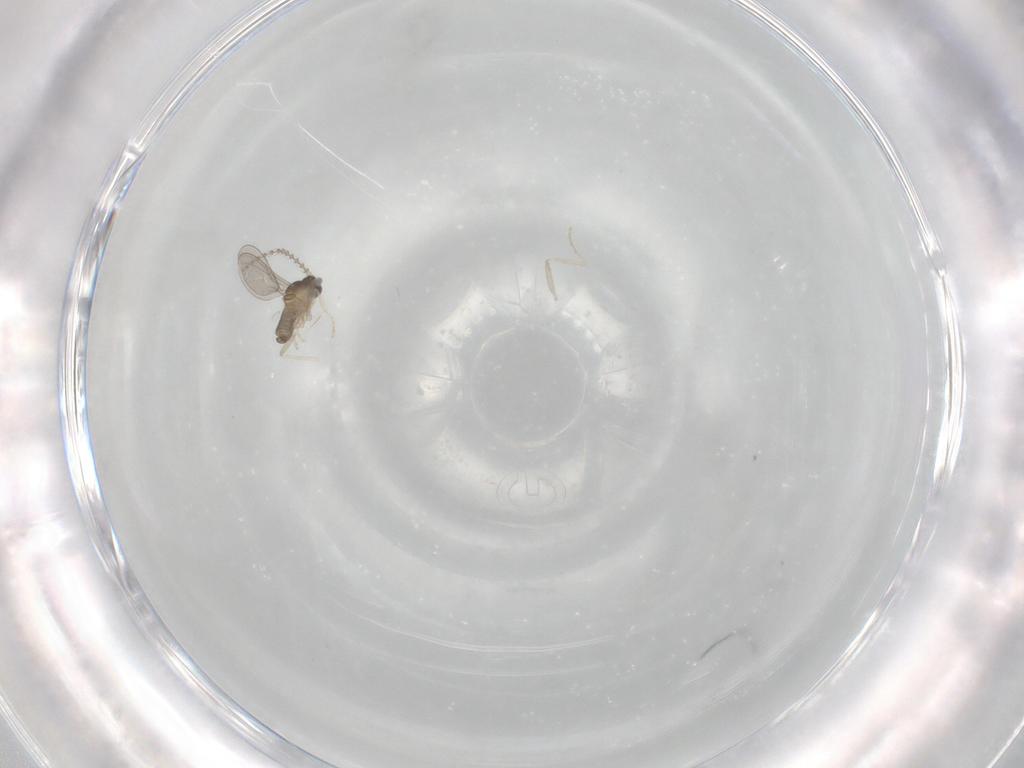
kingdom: Animalia
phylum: Arthropoda
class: Insecta
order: Diptera
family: Cecidomyiidae
